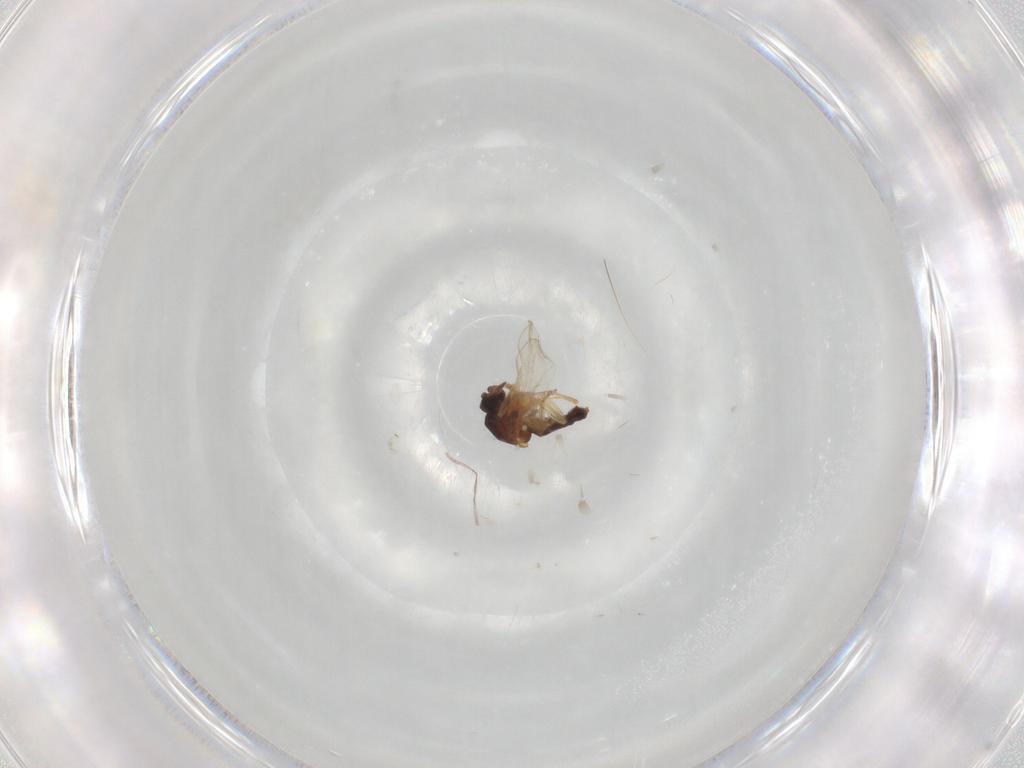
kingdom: Animalia
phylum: Arthropoda
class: Insecta
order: Diptera
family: Ceratopogonidae
